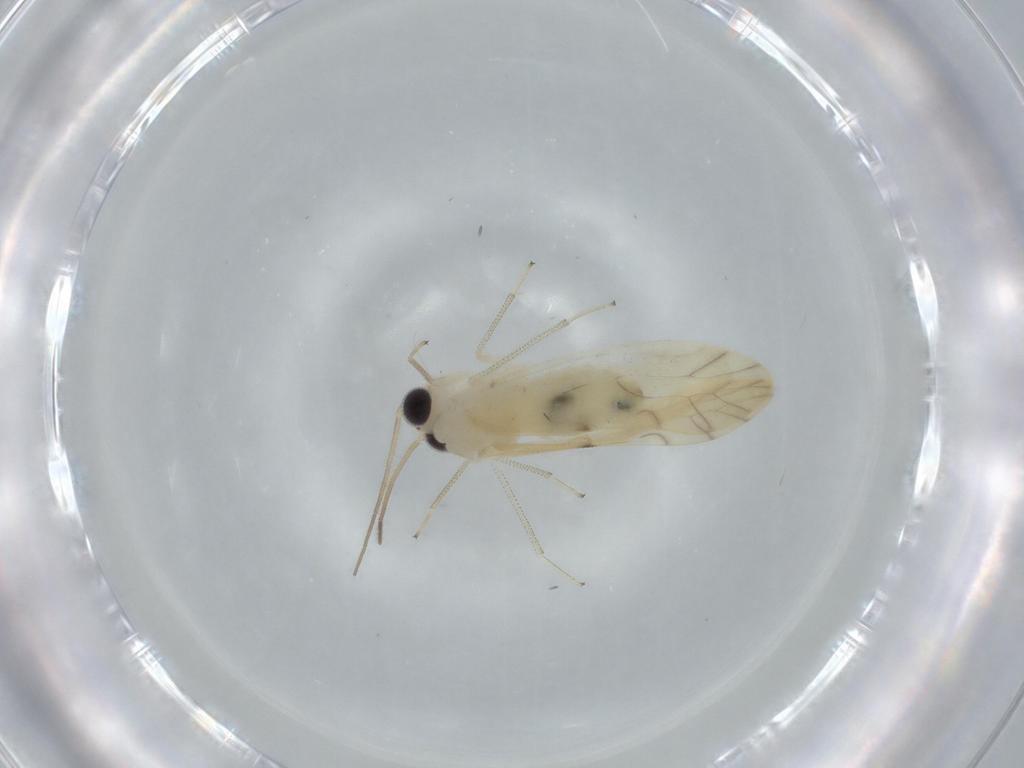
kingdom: Animalia
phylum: Arthropoda
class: Insecta
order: Psocodea
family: Caeciliusidae
